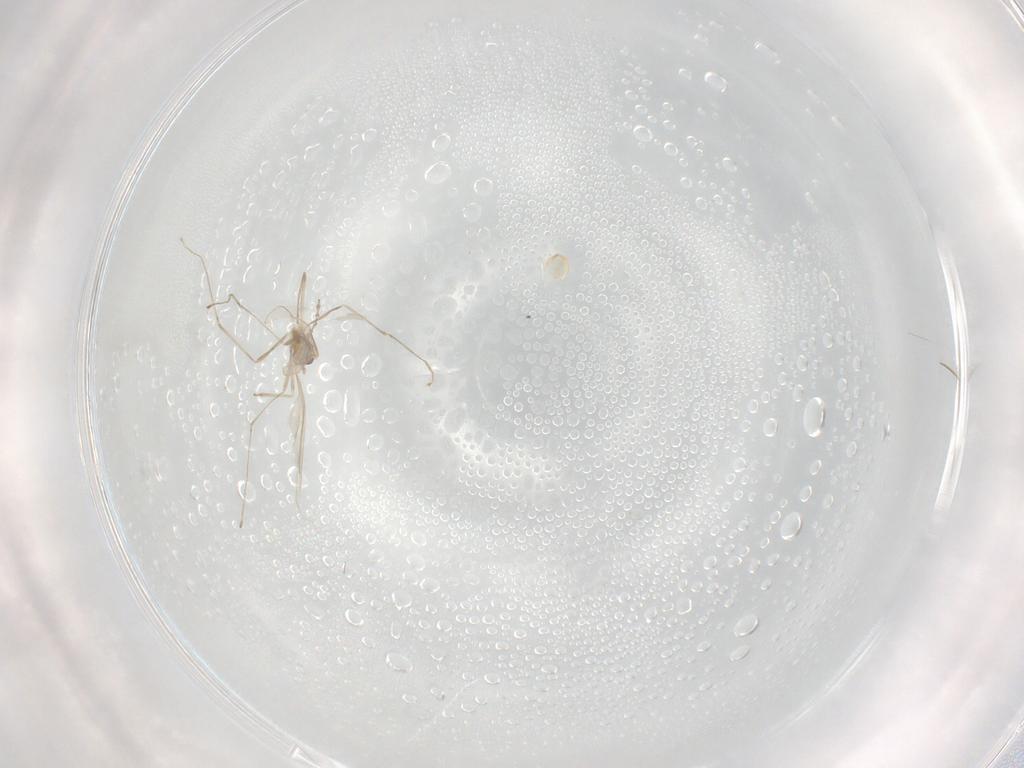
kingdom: Animalia
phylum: Arthropoda
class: Insecta
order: Diptera
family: Cecidomyiidae
